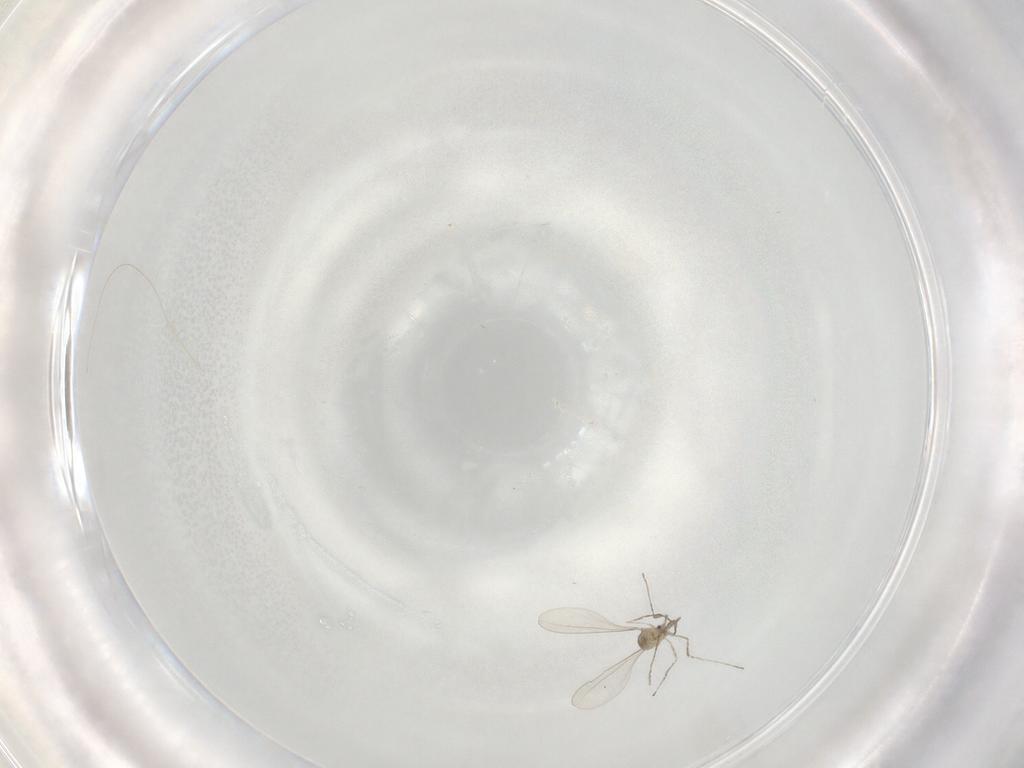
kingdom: Animalia
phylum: Arthropoda
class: Insecta
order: Diptera
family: Cecidomyiidae
